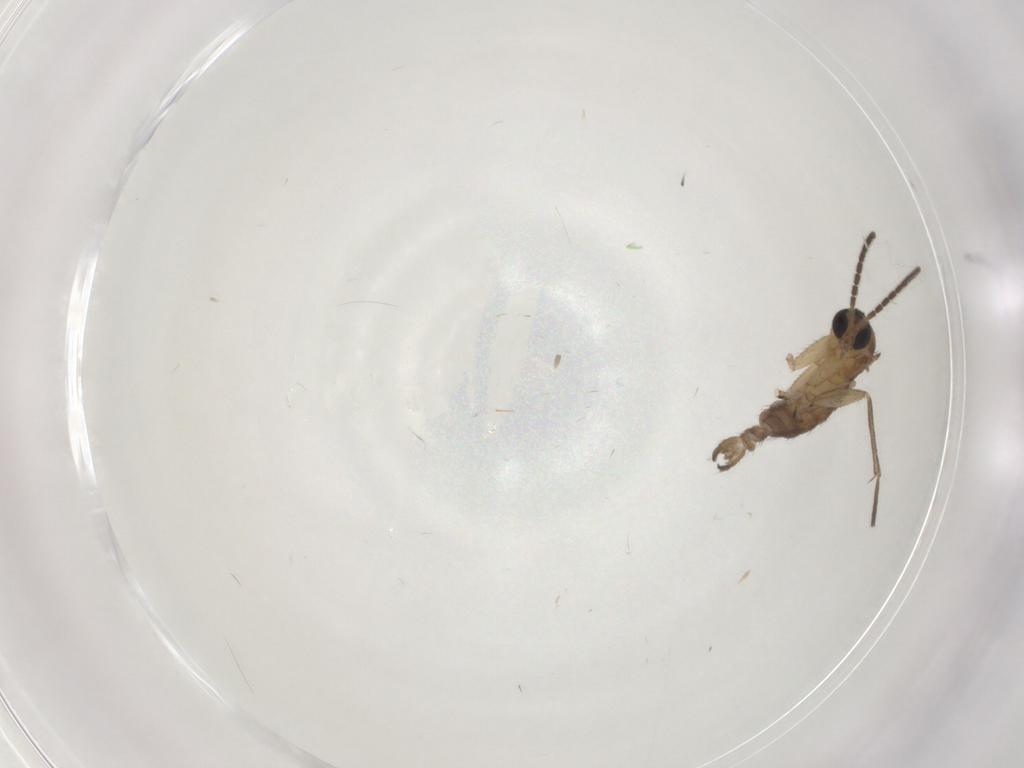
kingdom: Animalia
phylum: Arthropoda
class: Insecta
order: Diptera
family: Sciaridae
